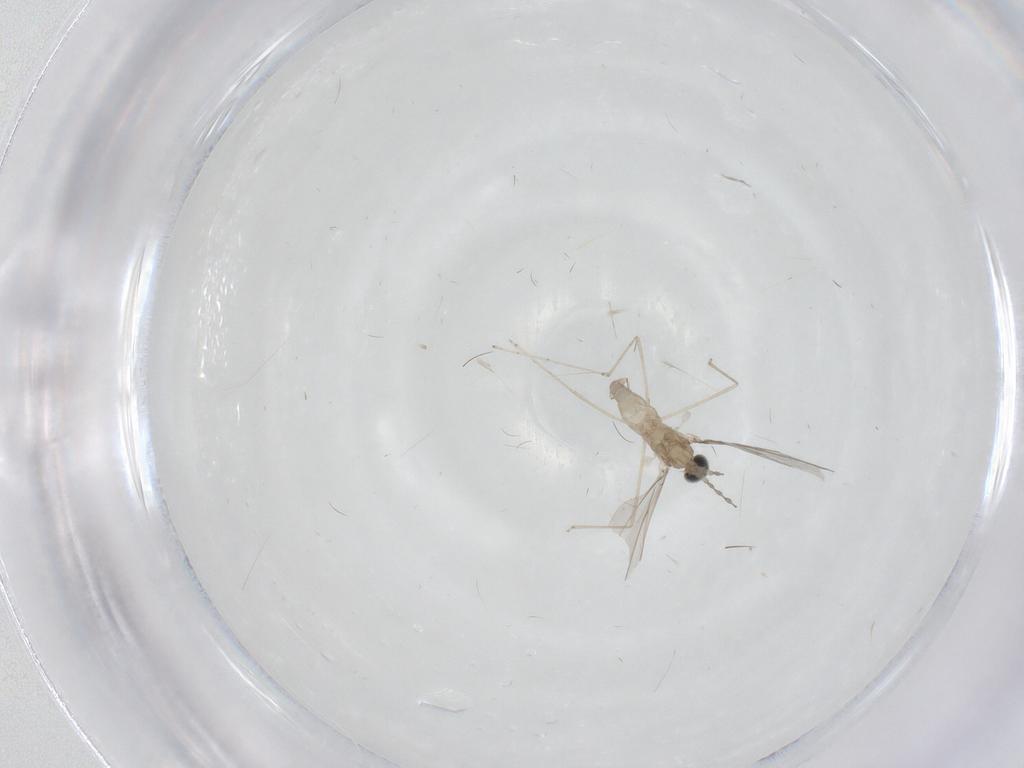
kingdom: Animalia
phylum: Arthropoda
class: Insecta
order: Diptera
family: Cecidomyiidae
